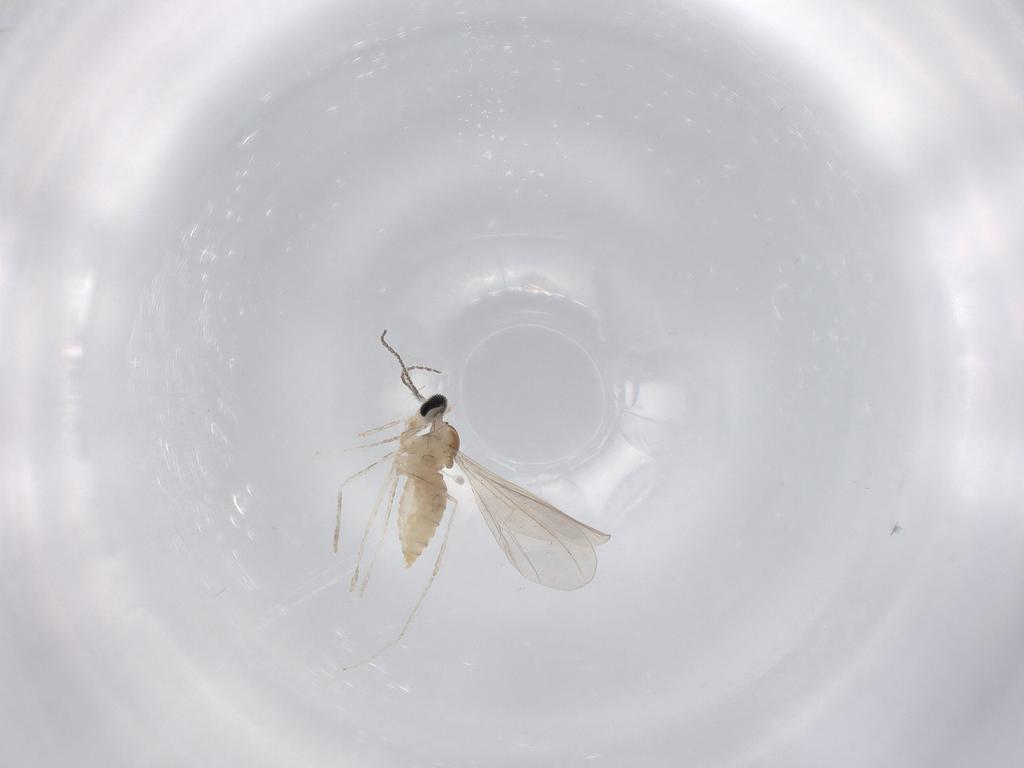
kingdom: Animalia
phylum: Arthropoda
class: Insecta
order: Diptera
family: Cecidomyiidae
